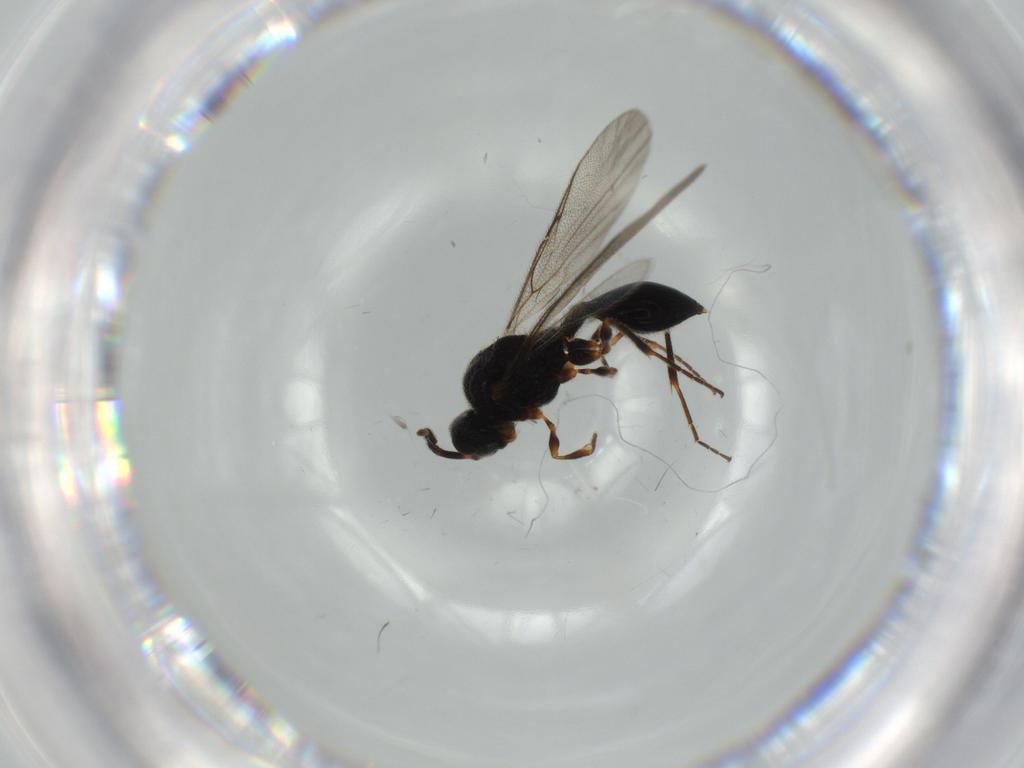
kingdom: Animalia
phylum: Arthropoda
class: Insecta
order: Hymenoptera
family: Diapriidae
